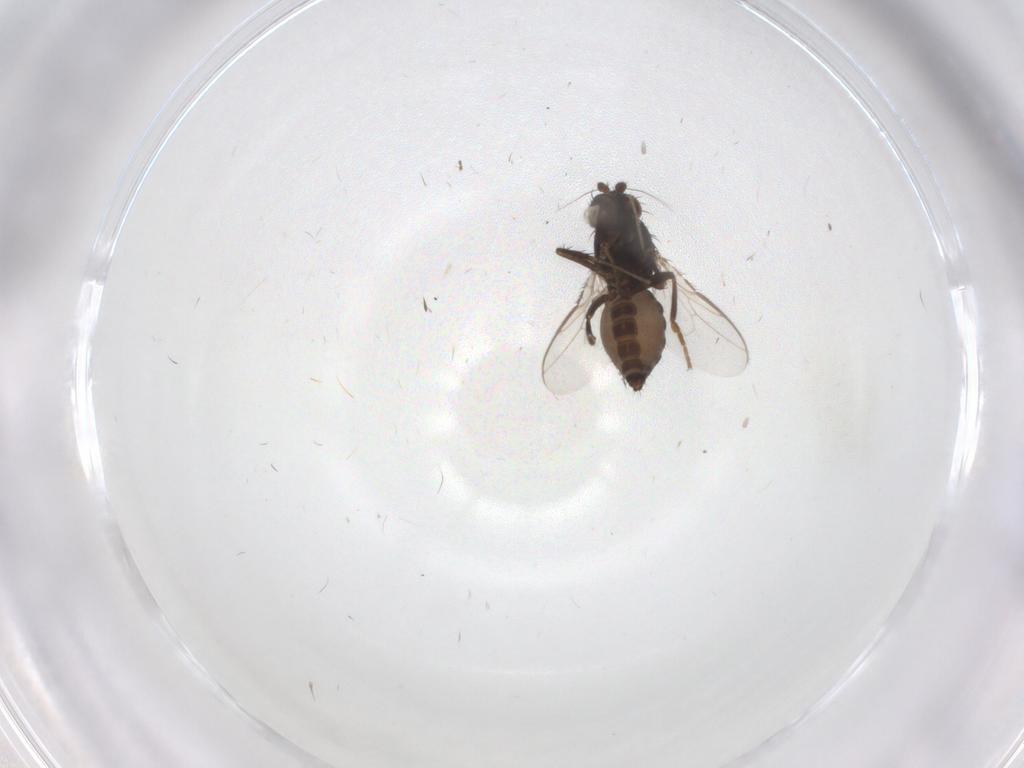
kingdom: Animalia
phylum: Arthropoda
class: Insecta
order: Diptera
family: Sphaeroceridae
